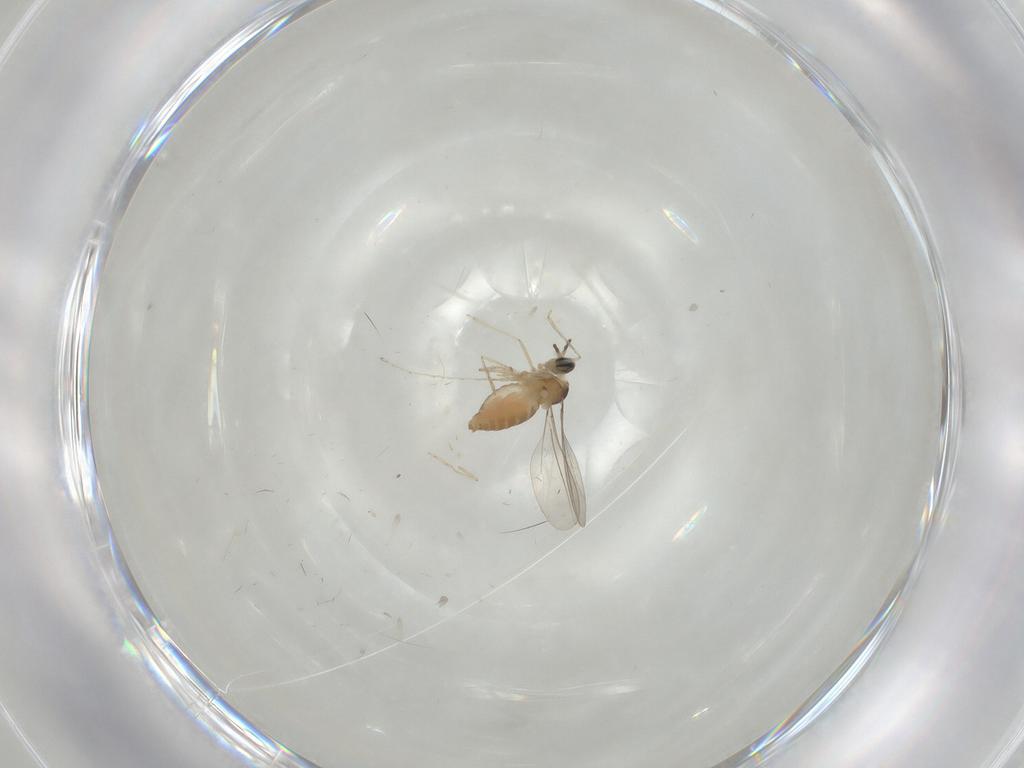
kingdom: Animalia
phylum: Arthropoda
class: Insecta
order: Diptera
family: Cecidomyiidae
